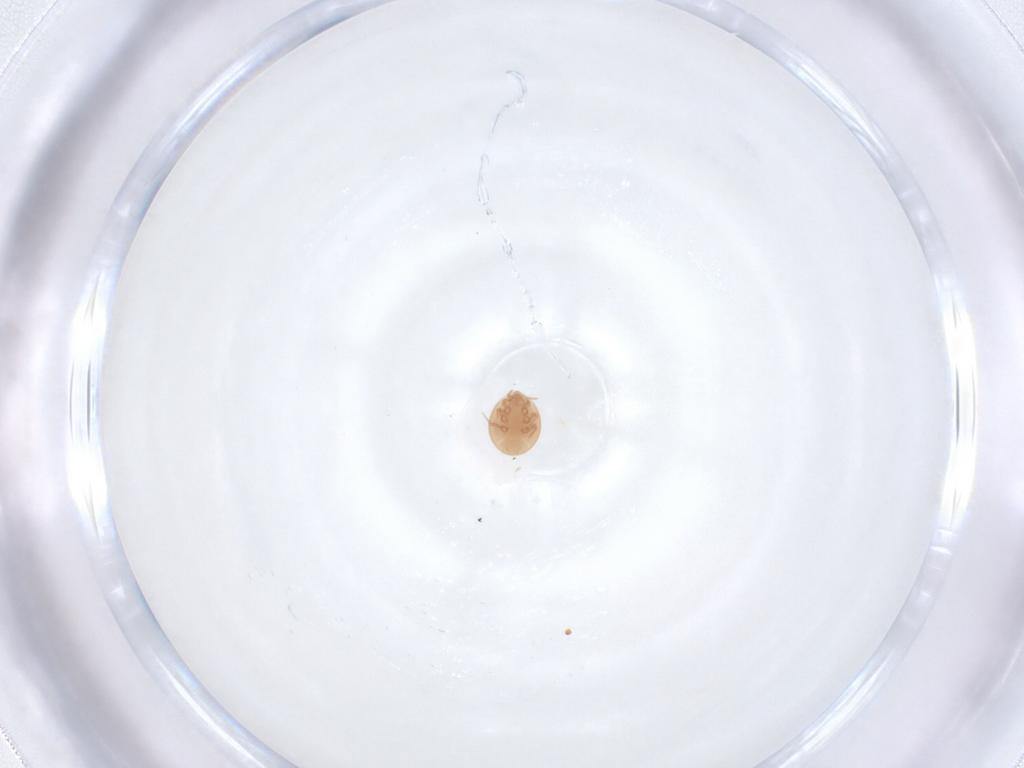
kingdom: Animalia
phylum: Arthropoda
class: Arachnida
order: Mesostigmata
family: Trematuridae
